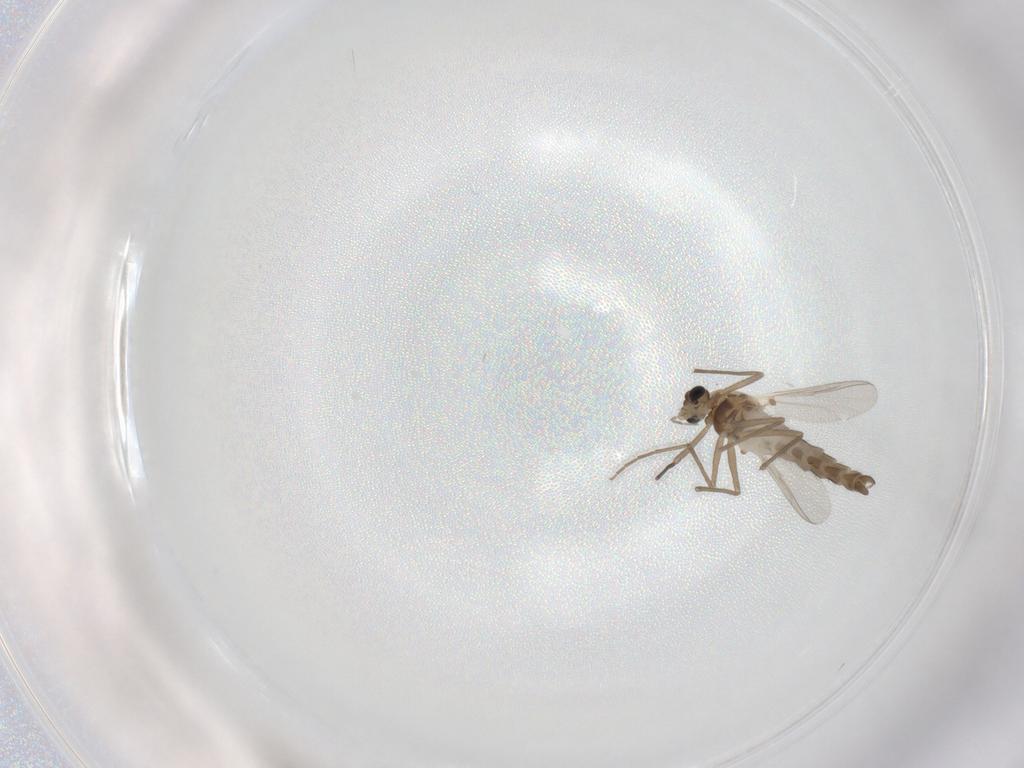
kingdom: Animalia
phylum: Arthropoda
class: Insecta
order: Diptera
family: Chironomidae
